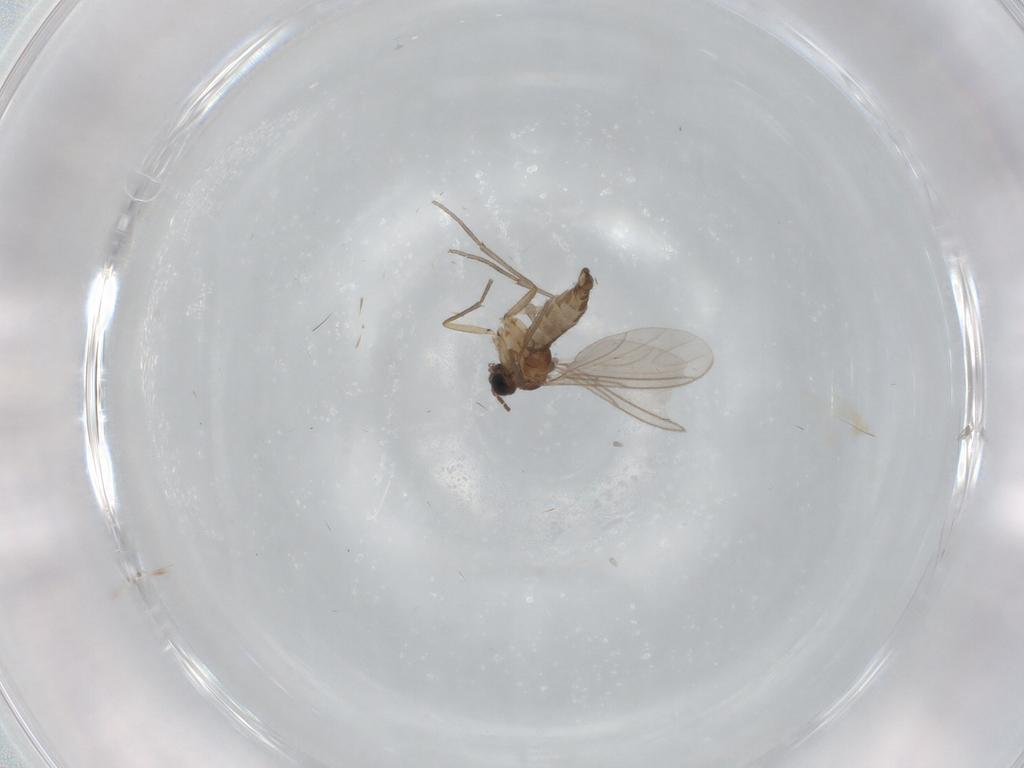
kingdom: Animalia
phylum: Arthropoda
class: Insecta
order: Diptera
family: Sciaridae
